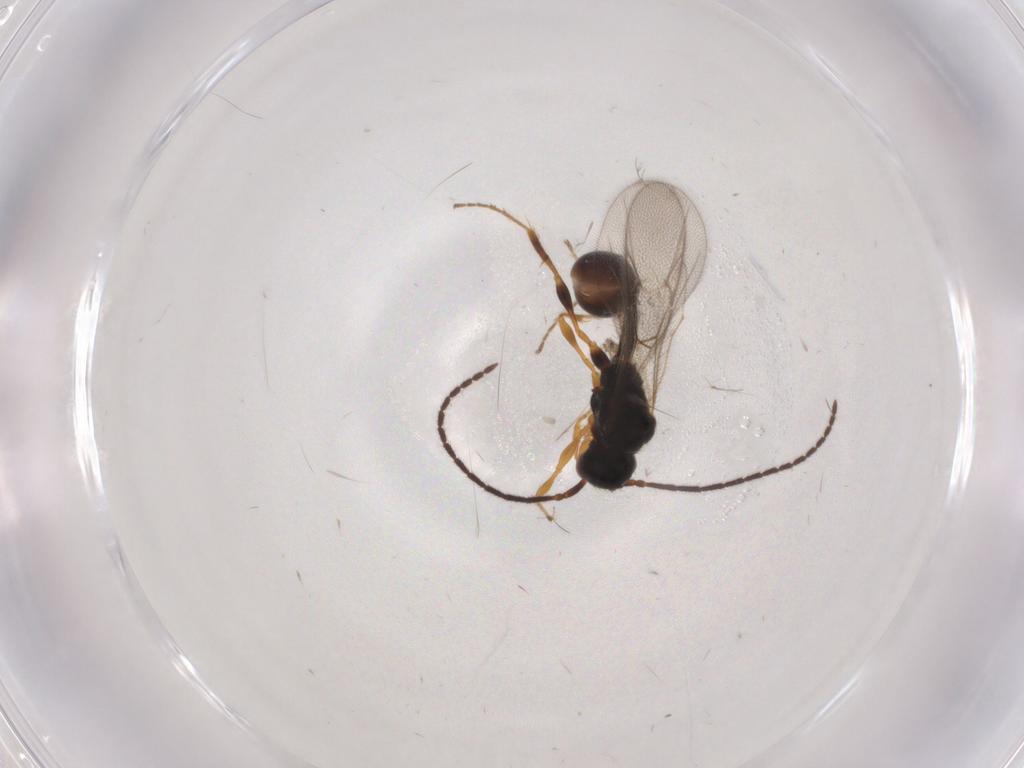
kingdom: Animalia
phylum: Arthropoda
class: Insecta
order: Hymenoptera
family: Diapriidae
